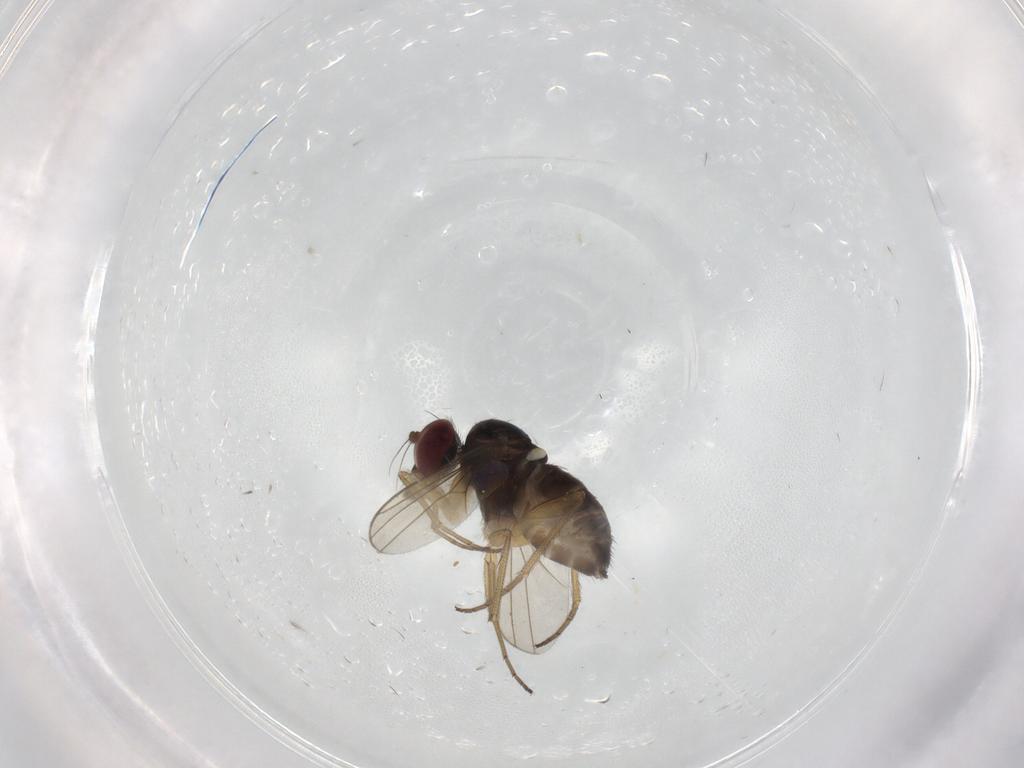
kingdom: Animalia
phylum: Arthropoda
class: Insecta
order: Diptera
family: Dolichopodidae
